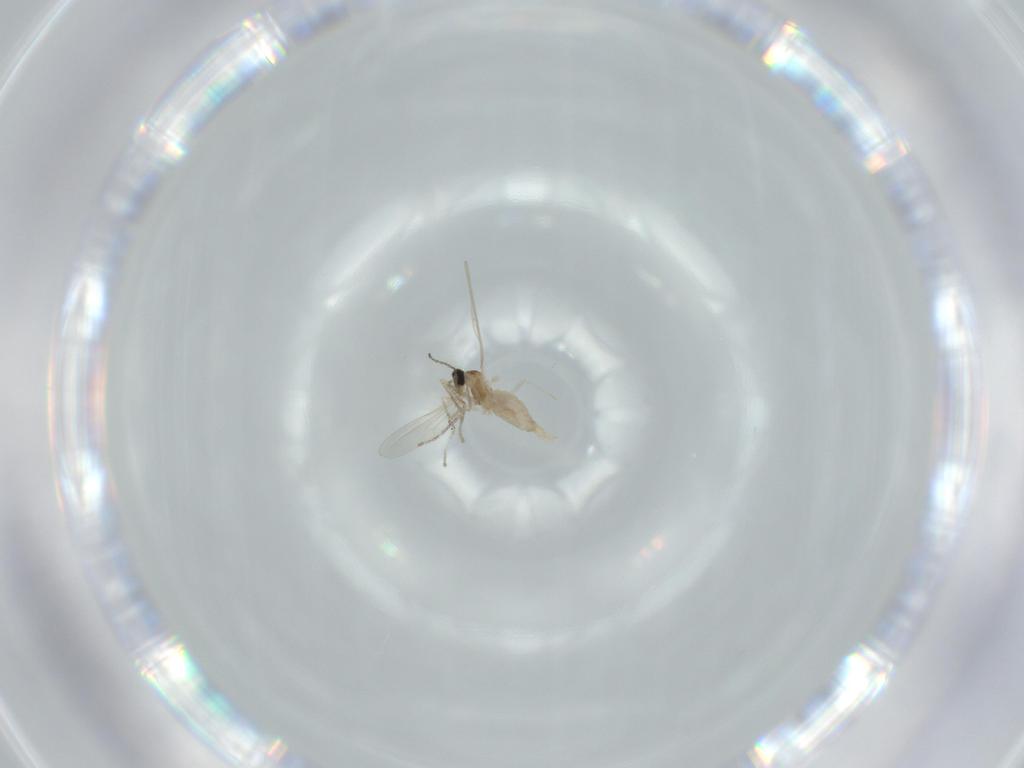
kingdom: Animalia
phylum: Arthropoda
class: Insecta
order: Diptera
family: Cecidomyiidae
